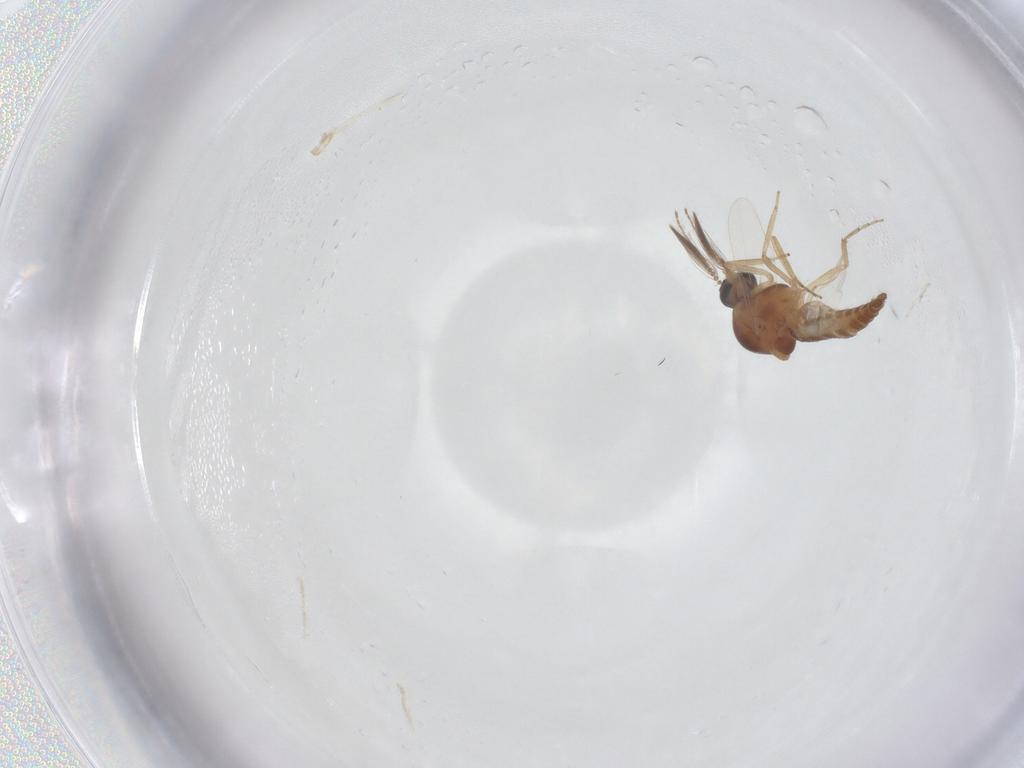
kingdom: Animalia
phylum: Arthropoda
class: Insecta
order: Diptera
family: Ceratopogonidae
